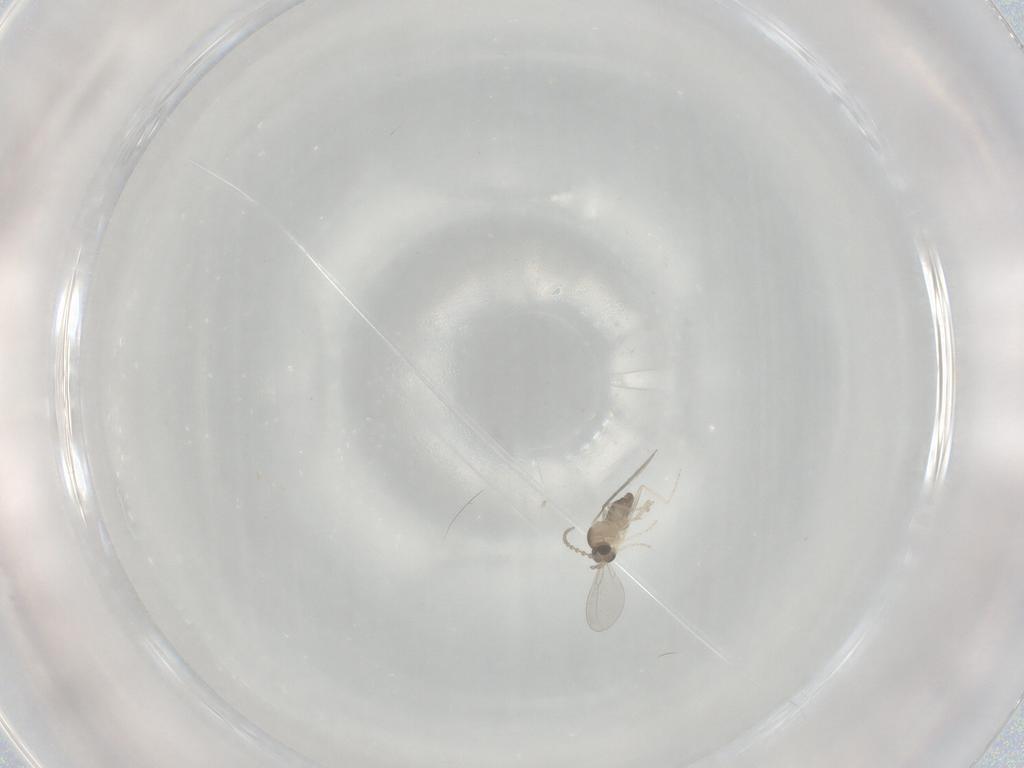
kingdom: Animalia
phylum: Arthropoda
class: Insecta
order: Diptera
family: Cecidomyiidae
